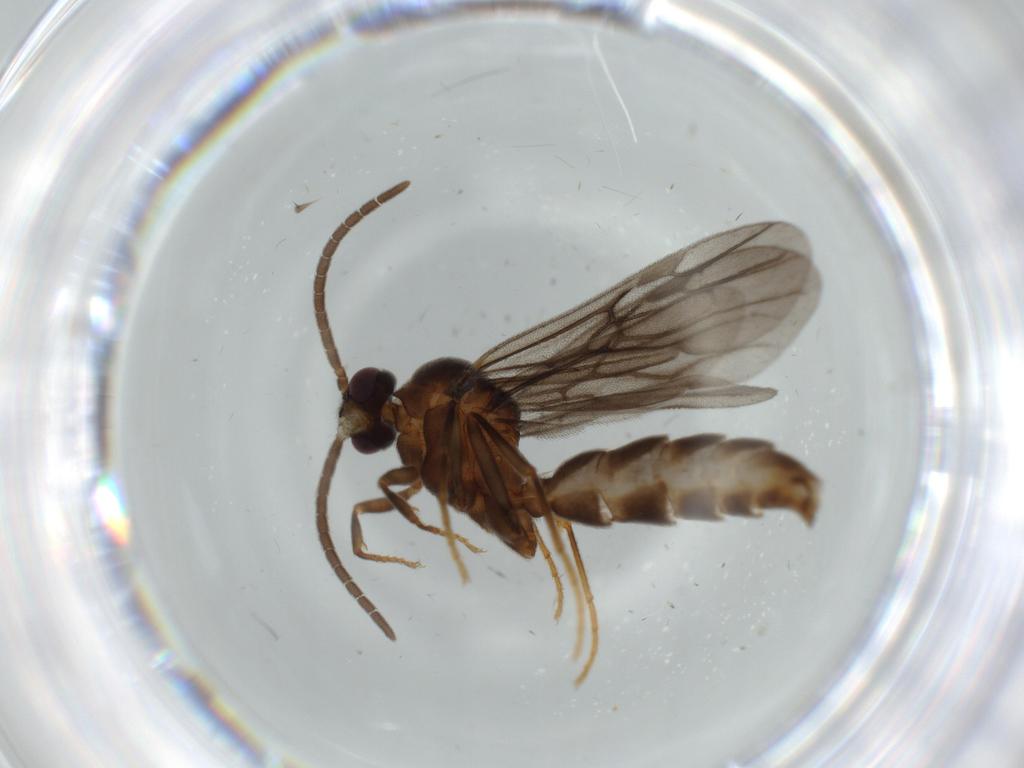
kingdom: Animalia
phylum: Arthropoda
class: Insecta
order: Hymenoptera
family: Formicidae
